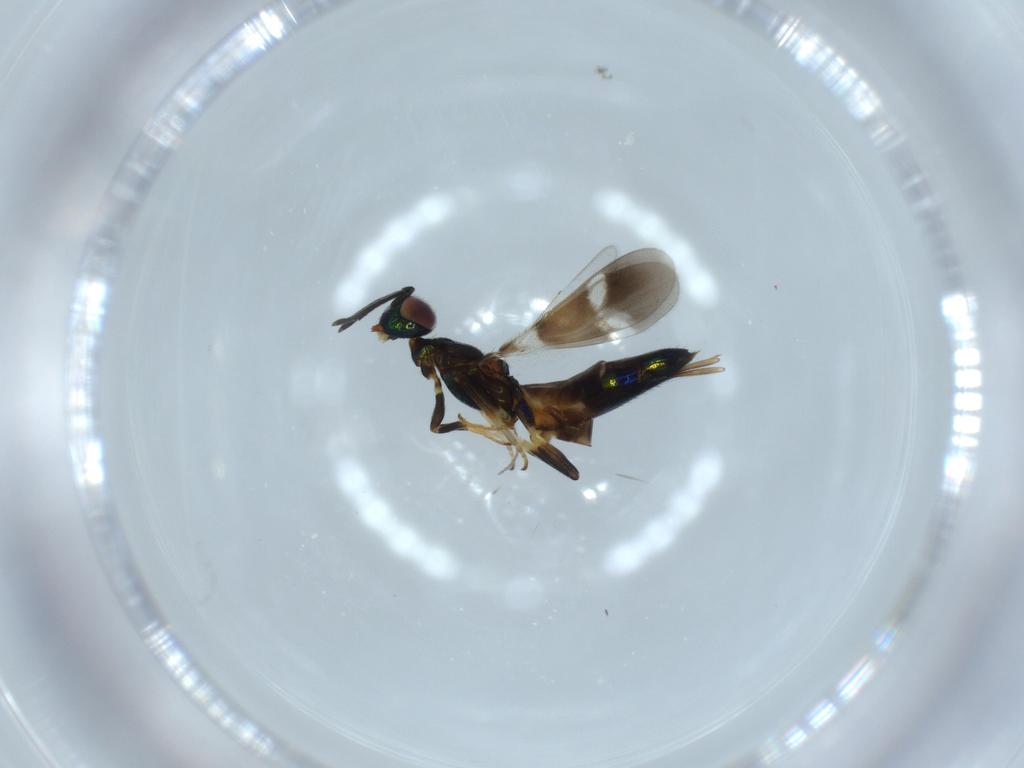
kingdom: Animalia
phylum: Arthropoda
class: Insecta
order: Hymenoptera
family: Eupelmidae
